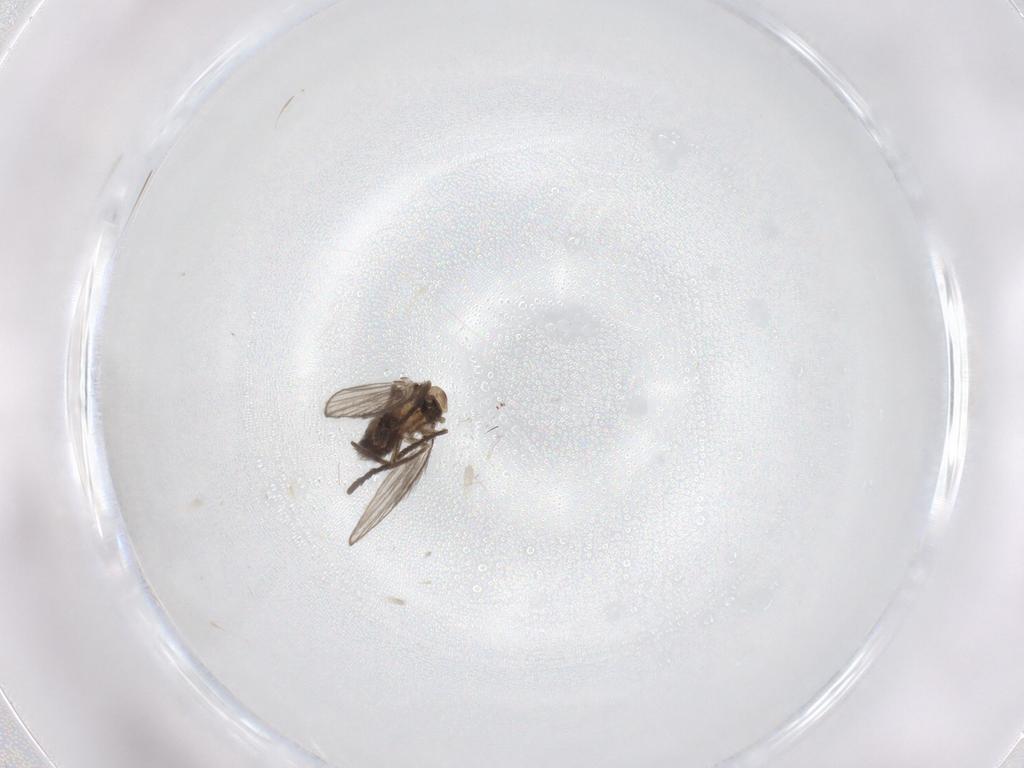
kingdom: Animalia
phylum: Arthropoda
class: Insecta
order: Diptera
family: Psychodidae
